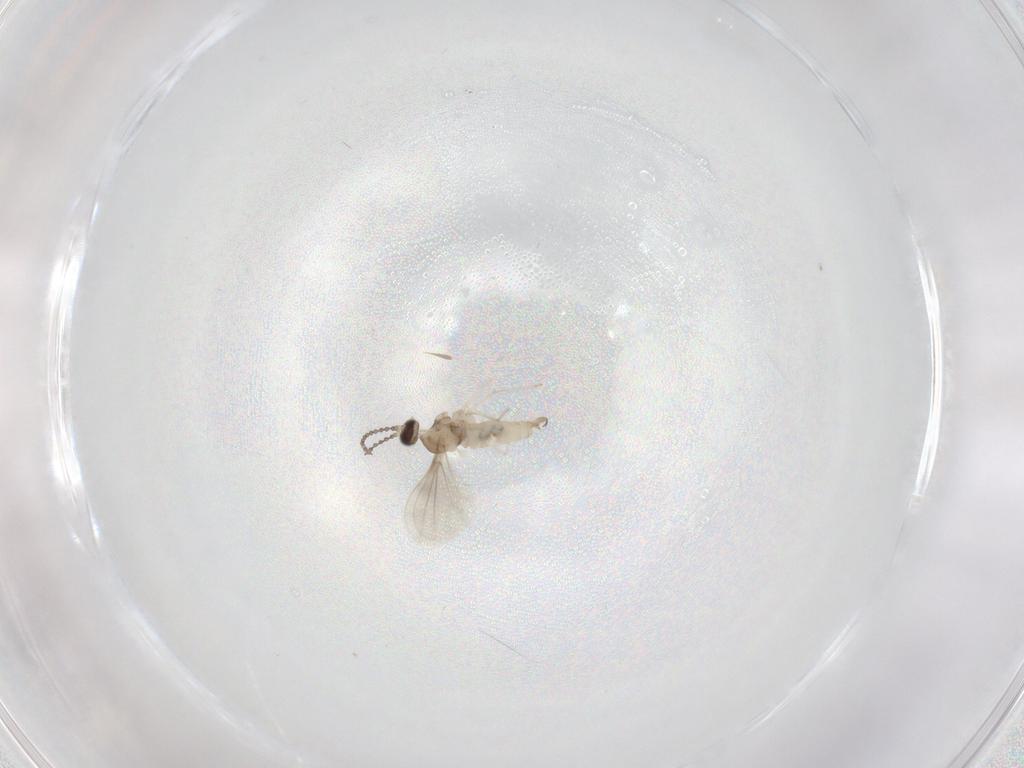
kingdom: Animalia
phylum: Arthropoda
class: Insecta
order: Diptera
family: Cecidomyiidae
